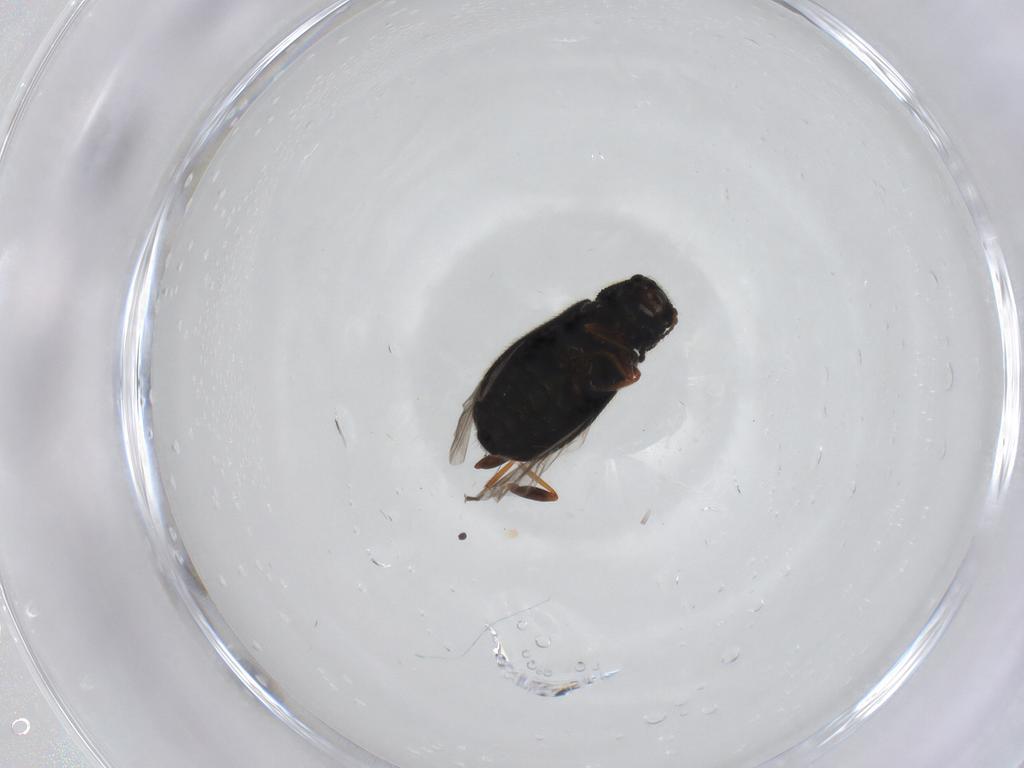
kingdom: Animalia
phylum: Arthropoda
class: Insecta
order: Coleoptera
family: Melyridae
